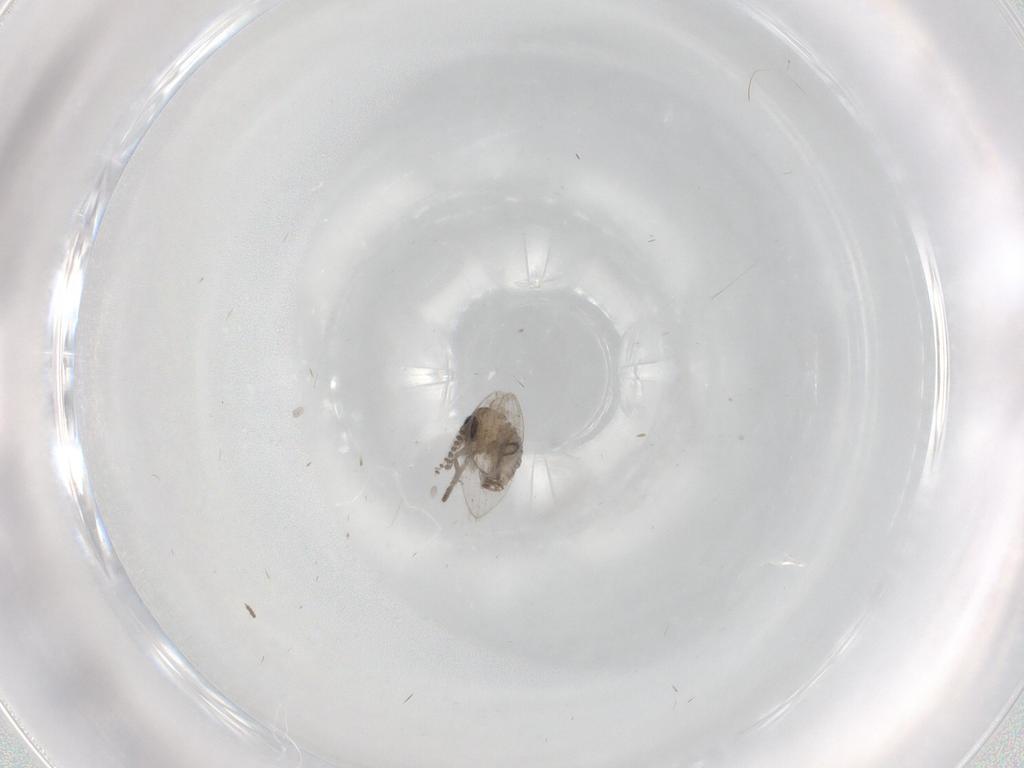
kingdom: Animalia
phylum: Arthropoda
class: Insecta
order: Diptera
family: Psychodidae
